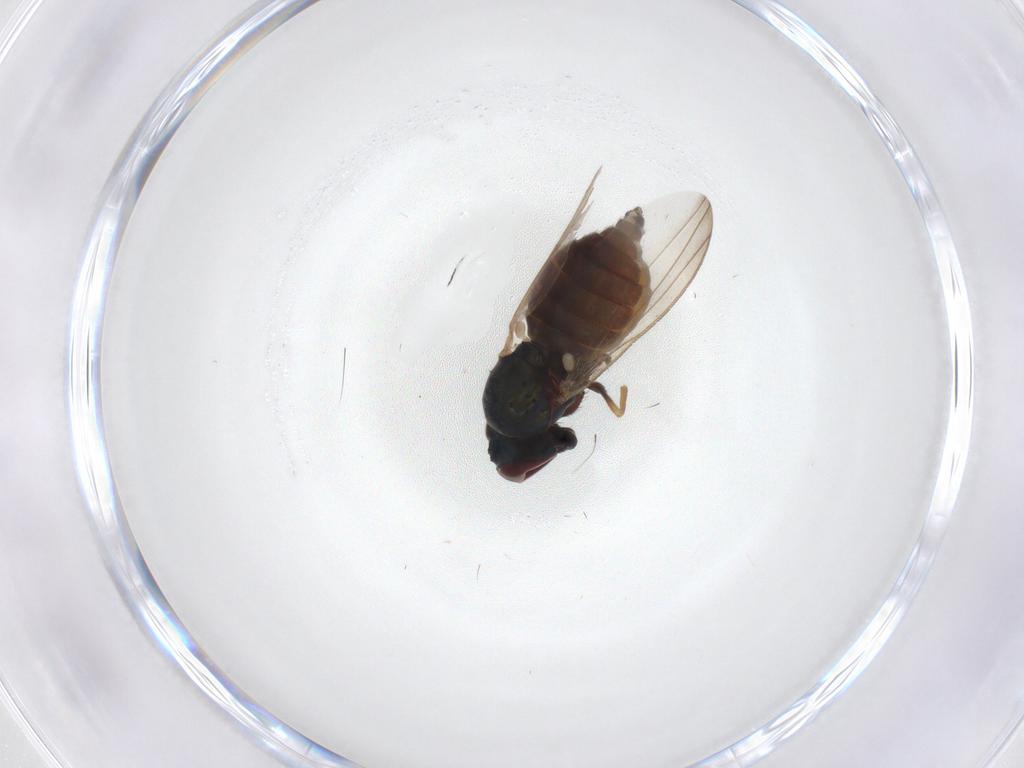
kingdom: Animalia
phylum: Arthropoda
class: Insecta
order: Diptera
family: Dolichopodidae
